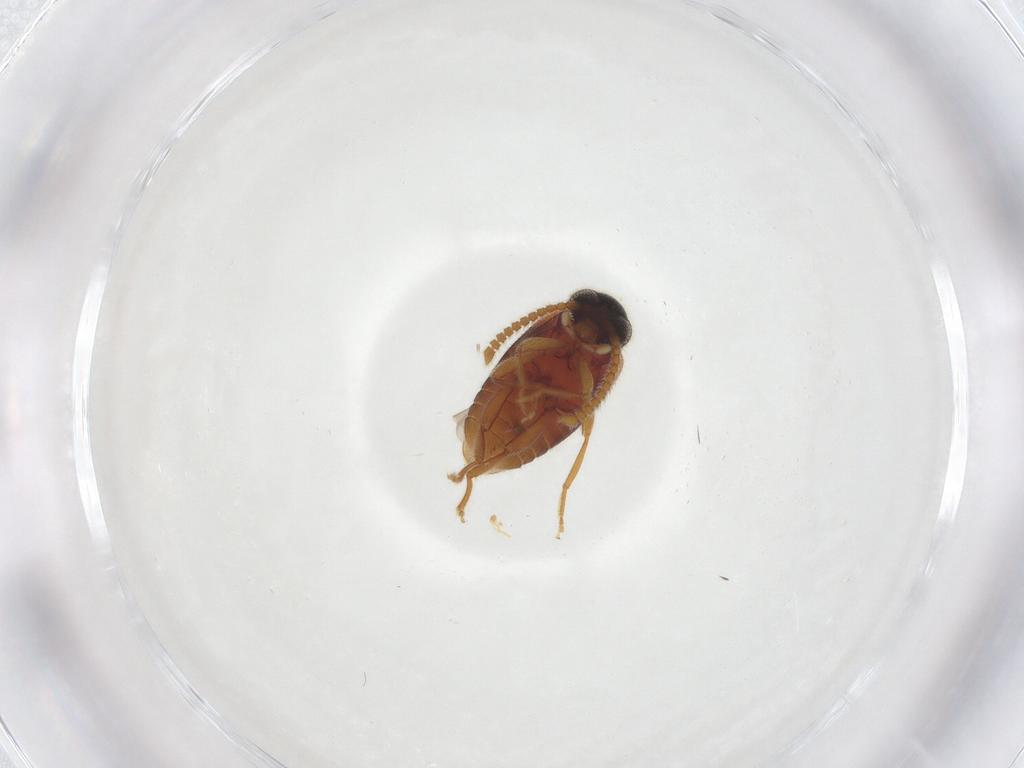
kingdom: Animalia
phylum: Arthropoda
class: Insecta
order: Coleoptera
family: Aderidae
